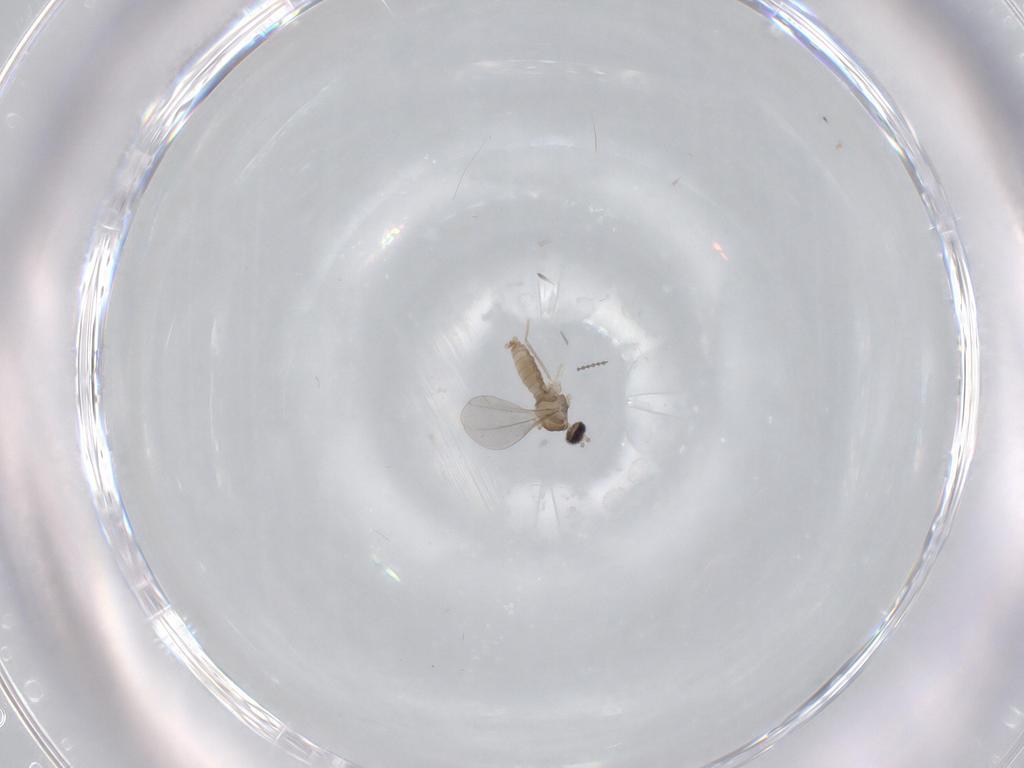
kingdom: Animalia
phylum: Arthropoda
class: Insecta
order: Diptera
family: Cecidomyiidae
